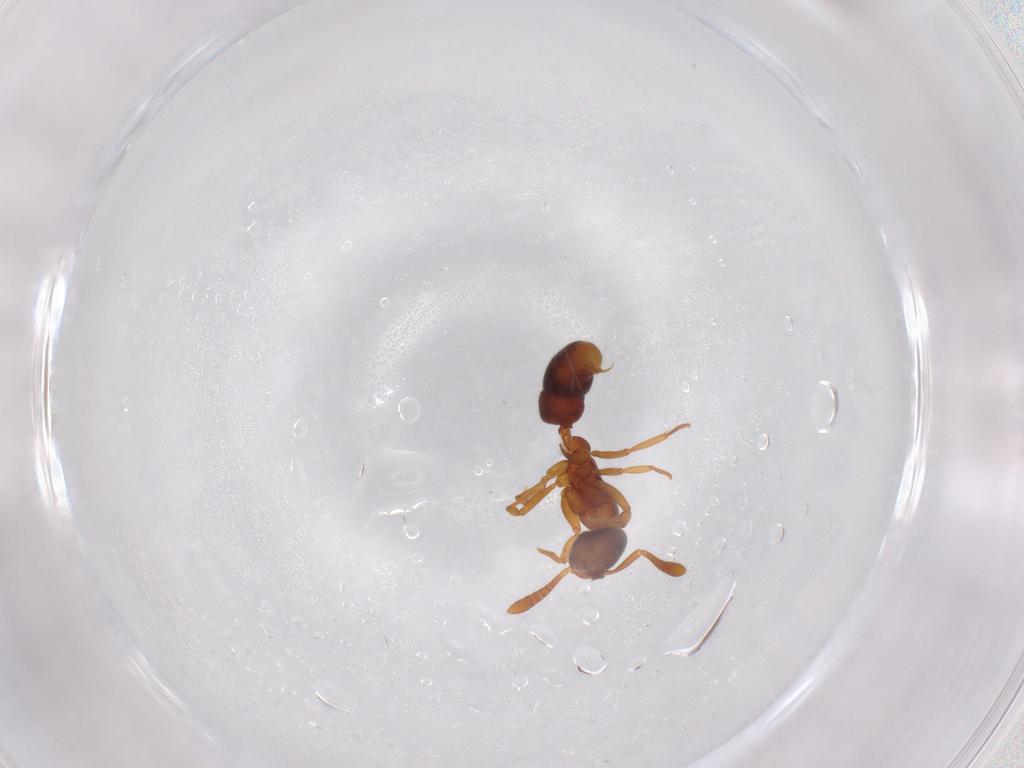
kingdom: Animalia
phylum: Arthropoda
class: Insecta
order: Hymenoptera
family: Formicidae
